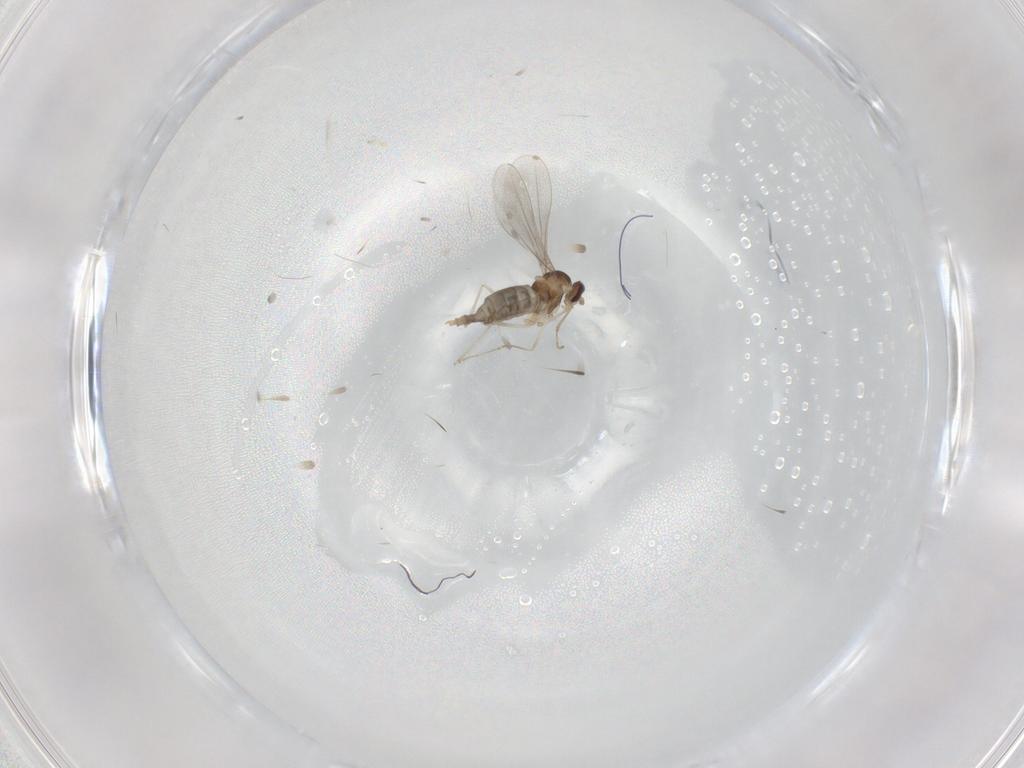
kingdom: Animalia
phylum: Arthropoda
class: Insecta
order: Diptera
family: Cecidomyiidae
